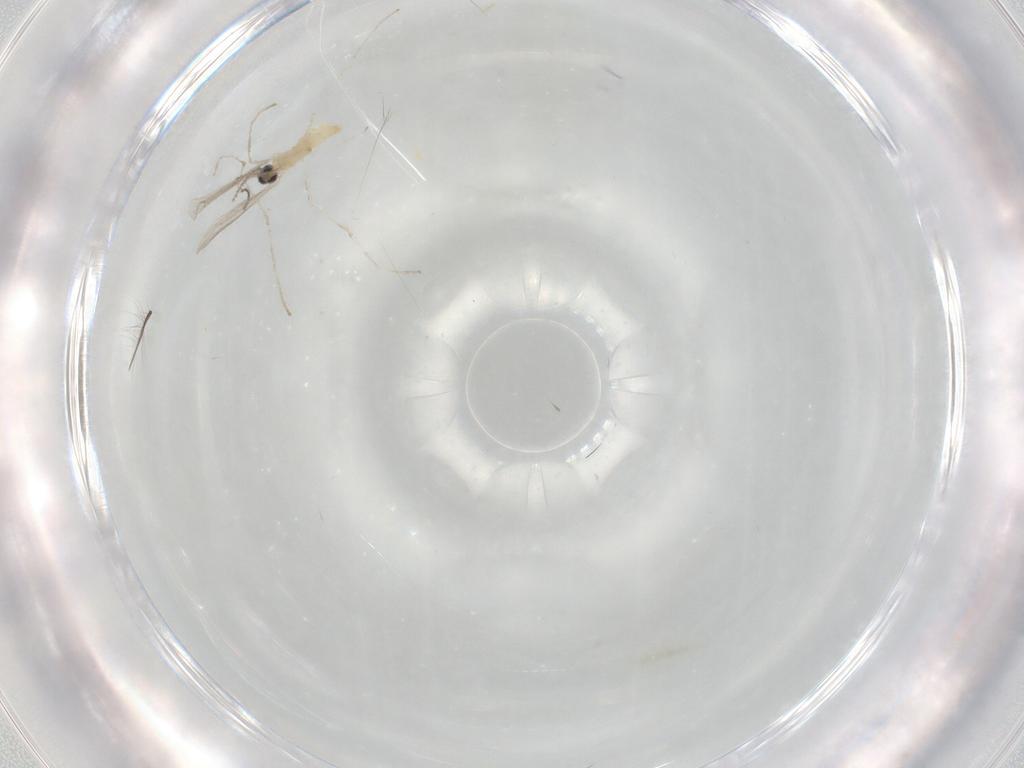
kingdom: Animalia
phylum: Arthropoda
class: Insecta
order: Diptera
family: Cecidomyiidae
